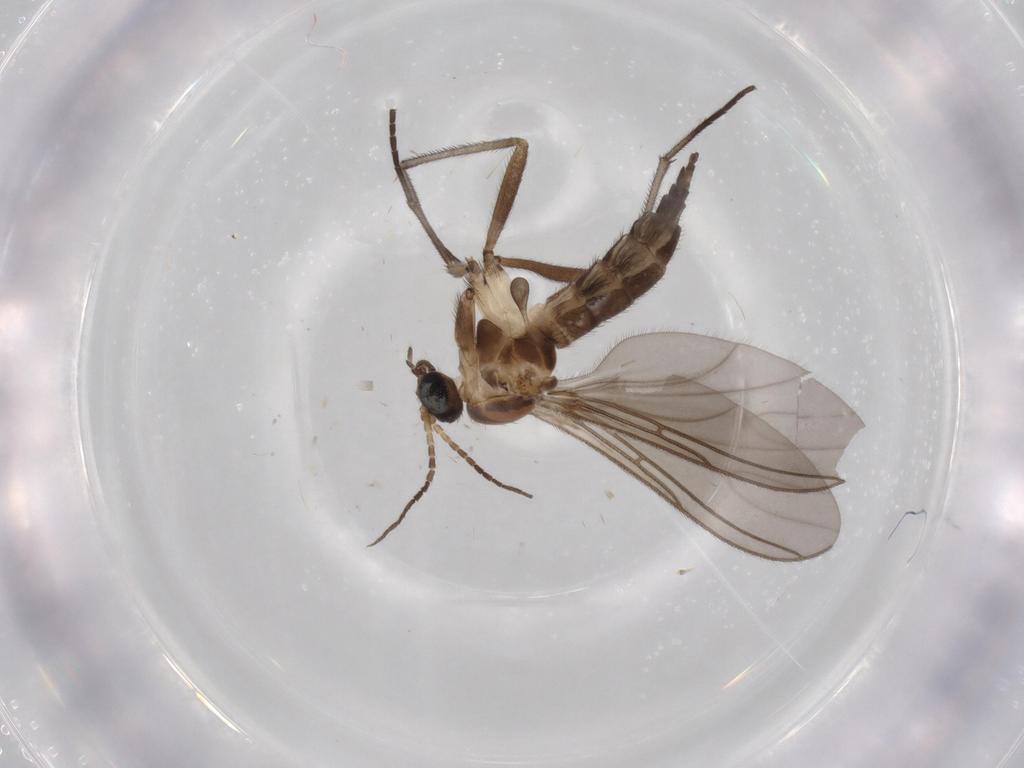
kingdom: Animalia
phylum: Arthropoda
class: Insecta
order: Diptera
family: Sciaridae
